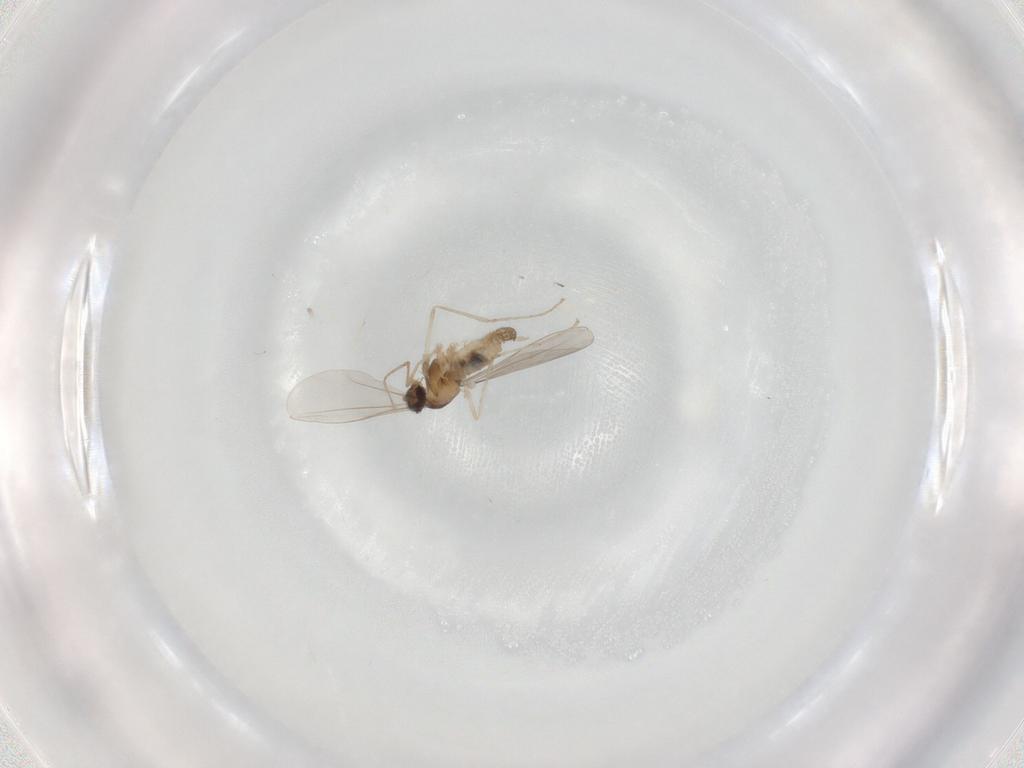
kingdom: Animalia
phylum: Arthropoda
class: Insecta
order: Diptera
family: Cecidomyiidae
